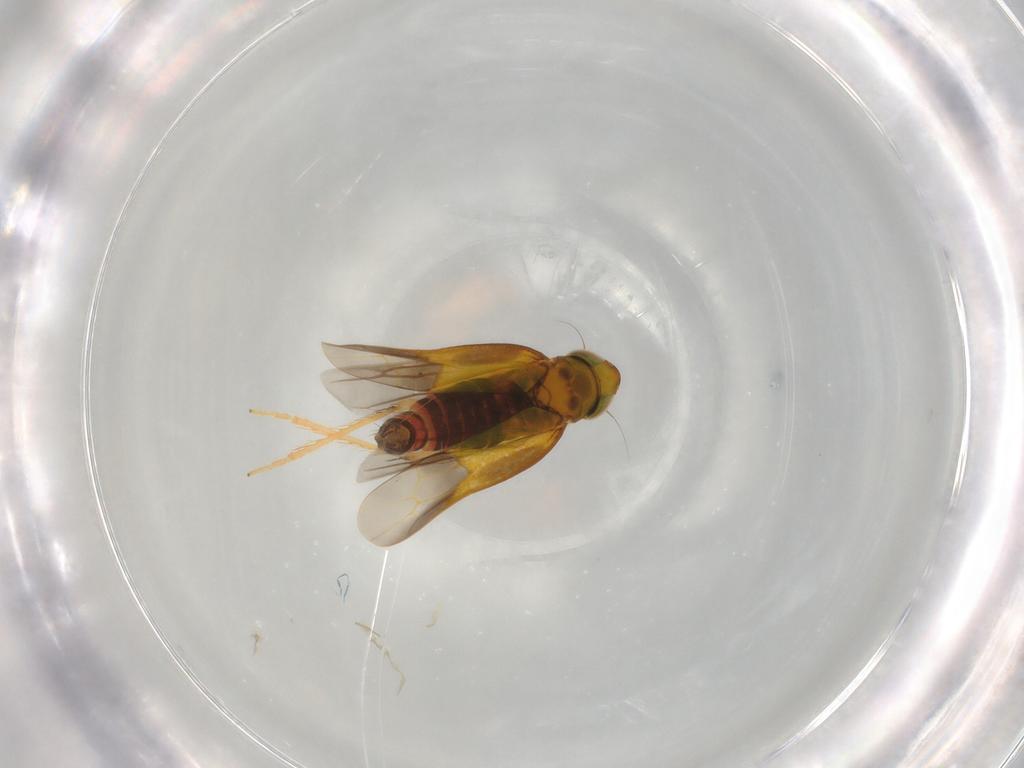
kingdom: Animalia
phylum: Arthropoda
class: Insecta
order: Hemiptera
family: Cicadellidae
